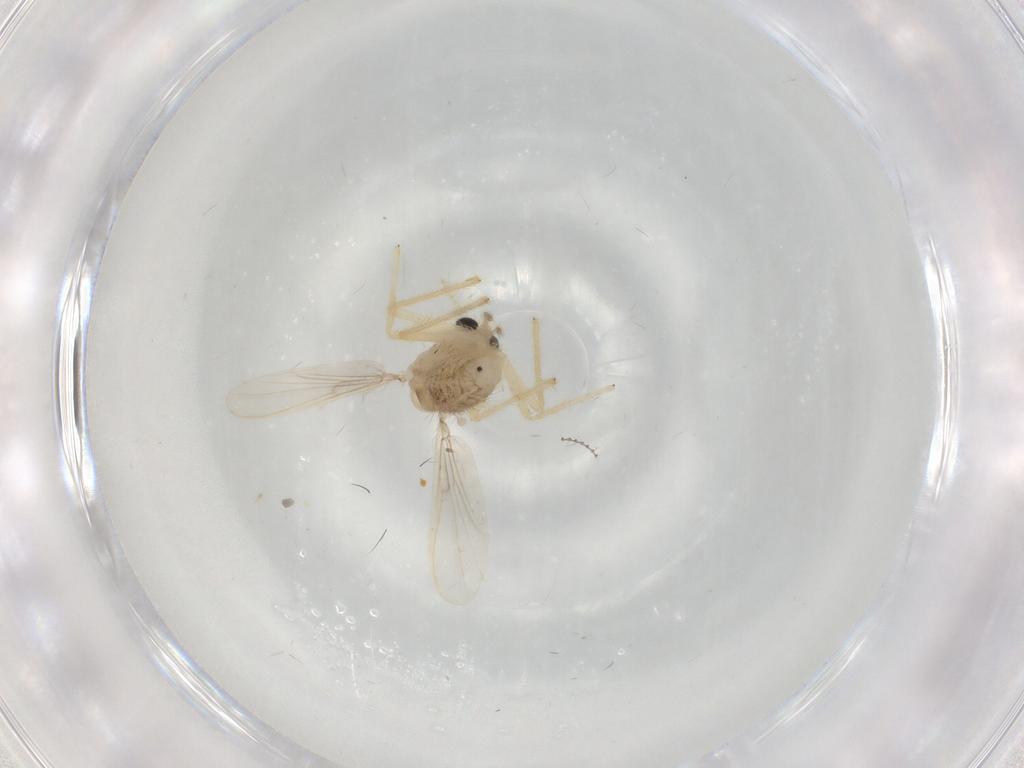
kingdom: Animalia
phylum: Arthropoda
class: Insecta
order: Diptera
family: Chironomidae
